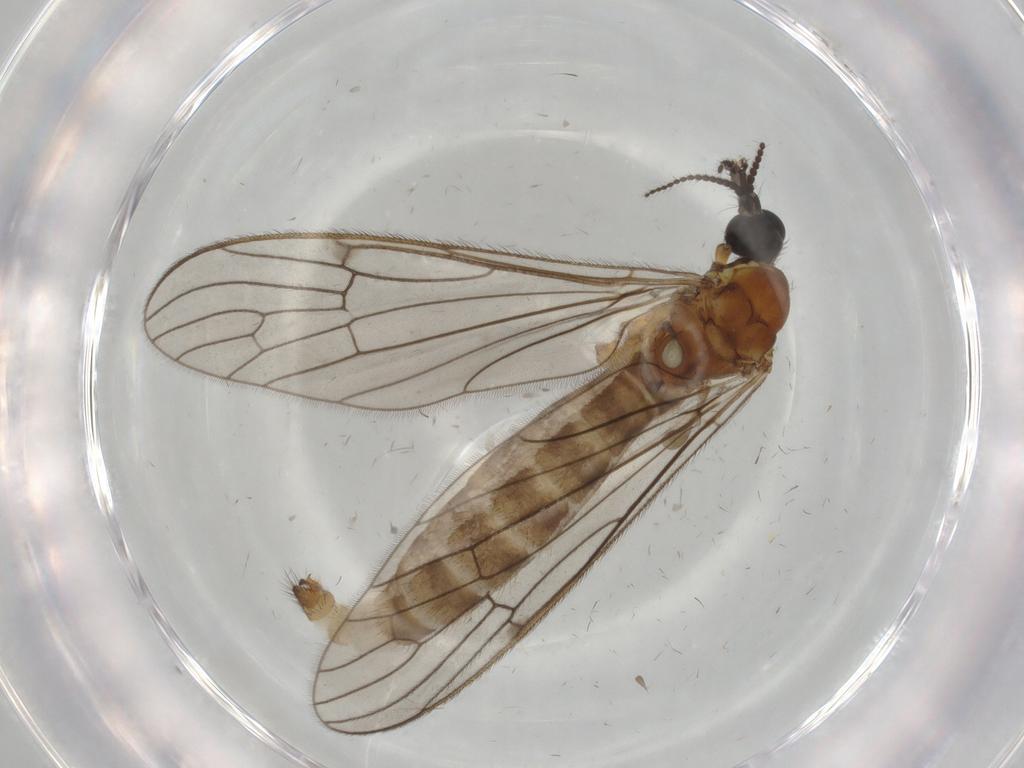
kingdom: Animalia
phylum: Arthropoda
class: Insecta
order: Diptera
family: Limoniidae
